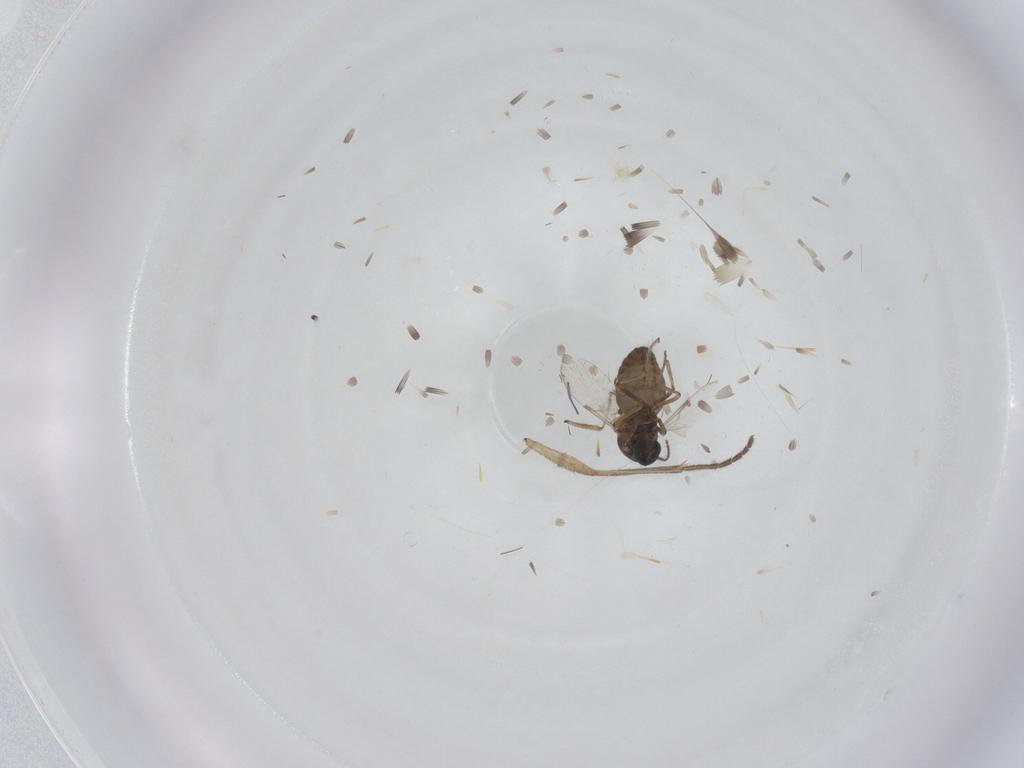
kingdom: Animalia
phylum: Arthropoda
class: Insecta
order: Diptera
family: Ceratopogonidae
